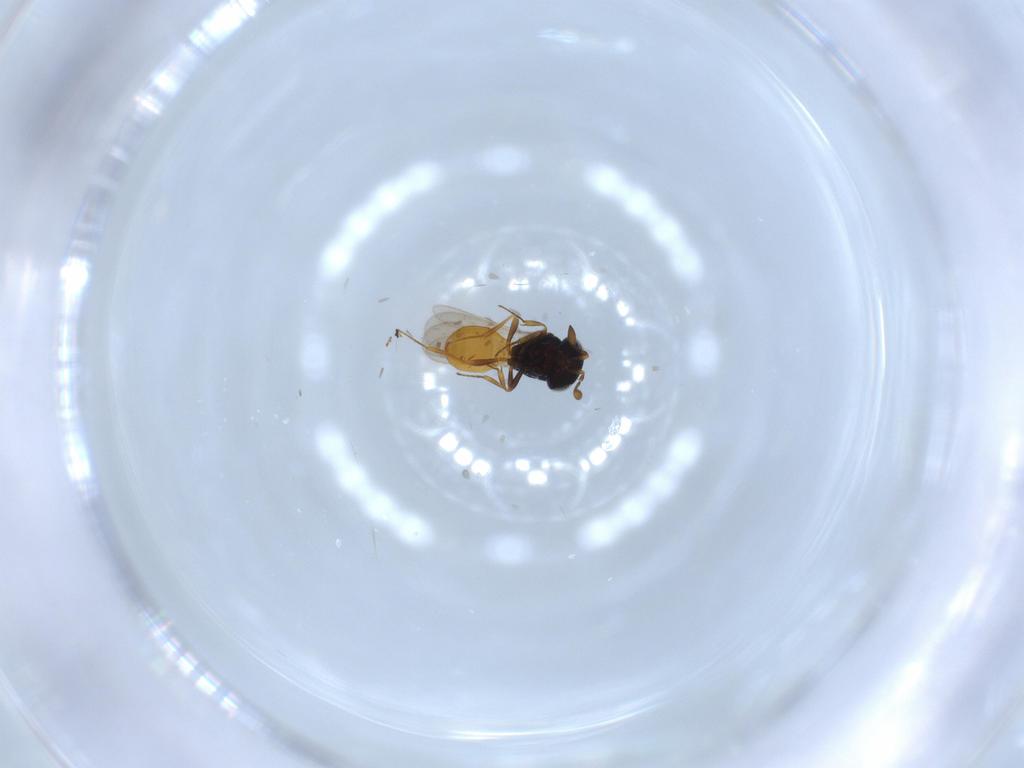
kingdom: Animalia
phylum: Arthropoda
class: Insecta
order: Hymenoptera
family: Scelionidae
